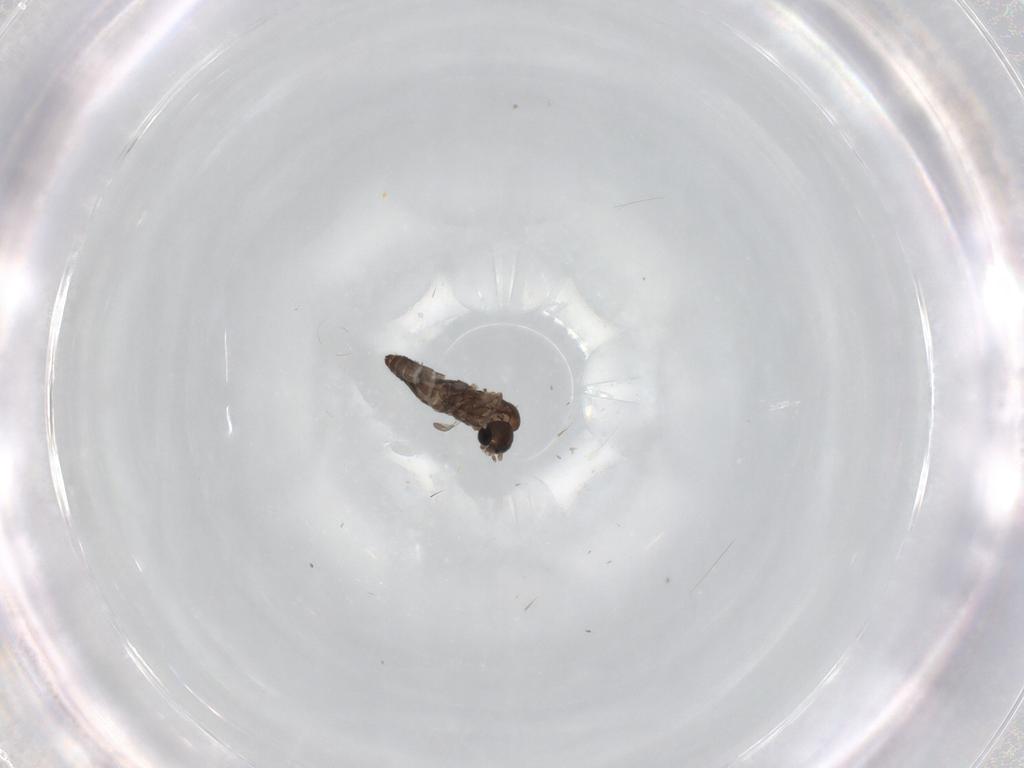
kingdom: Animalia
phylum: Arthropoda
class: Insecta
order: Diptera
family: Psychodidae
